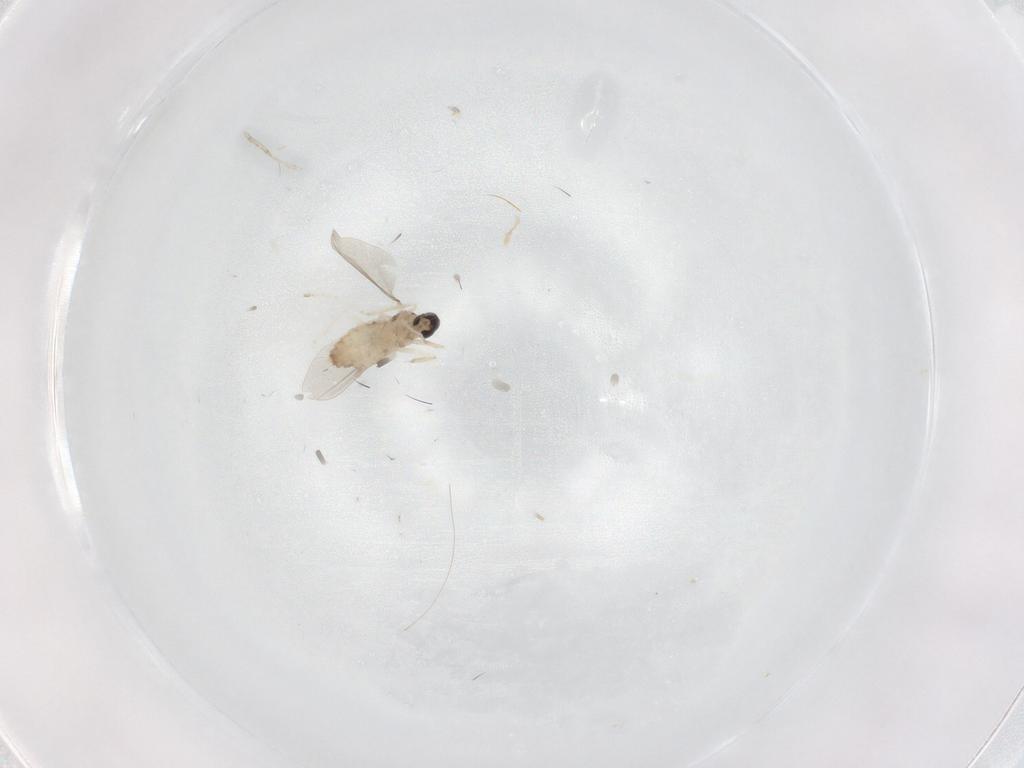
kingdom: Animalia
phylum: Arthropoda
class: Insecta
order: Diptera
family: Cecidomyiidae
